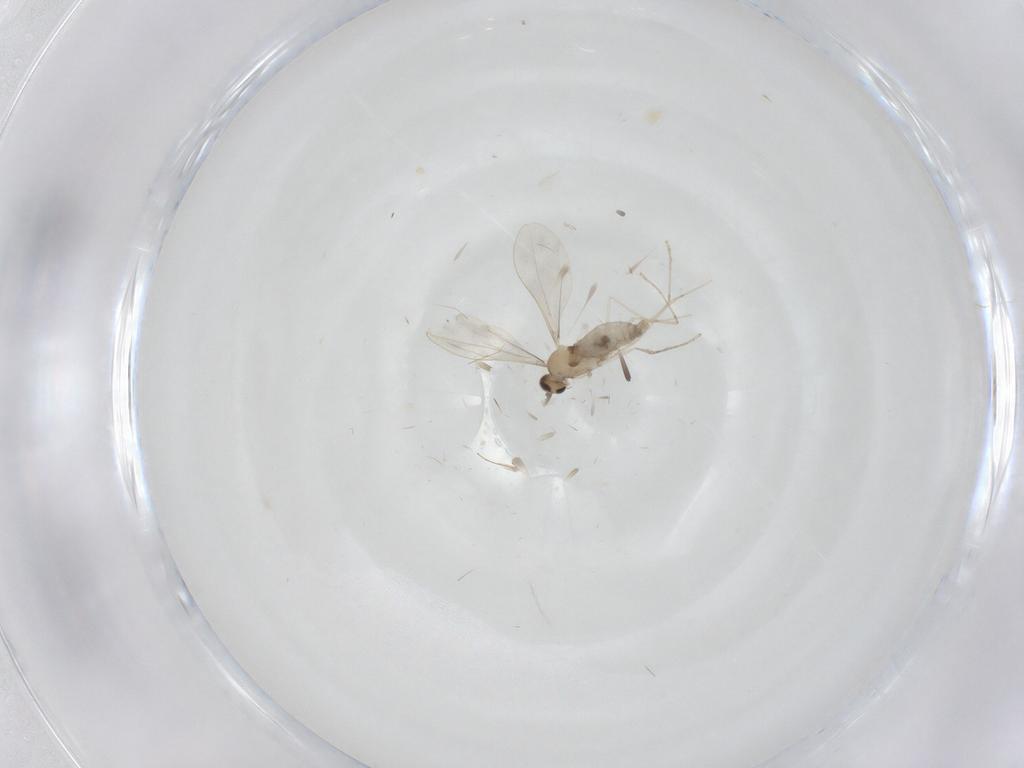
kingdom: Animalia
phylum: Arthropoda
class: Insecta
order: Diptera
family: Cecidomyiidae
